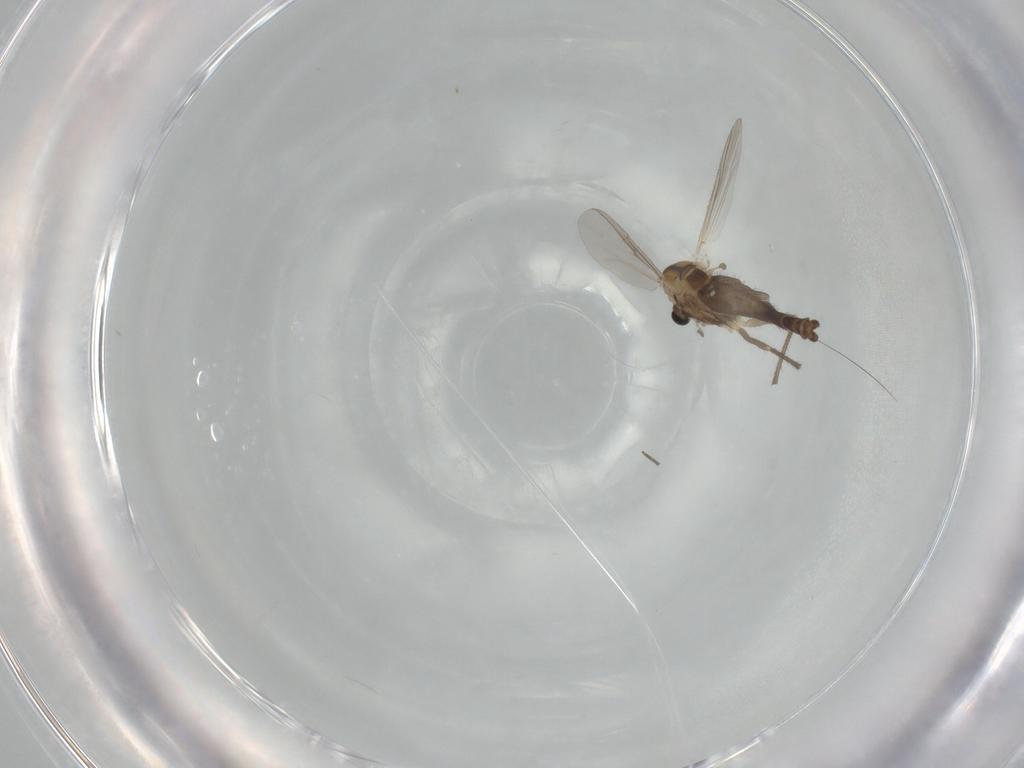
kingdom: Animalia
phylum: Arthropoda
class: Insecta
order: Diptera
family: Chironomidae
